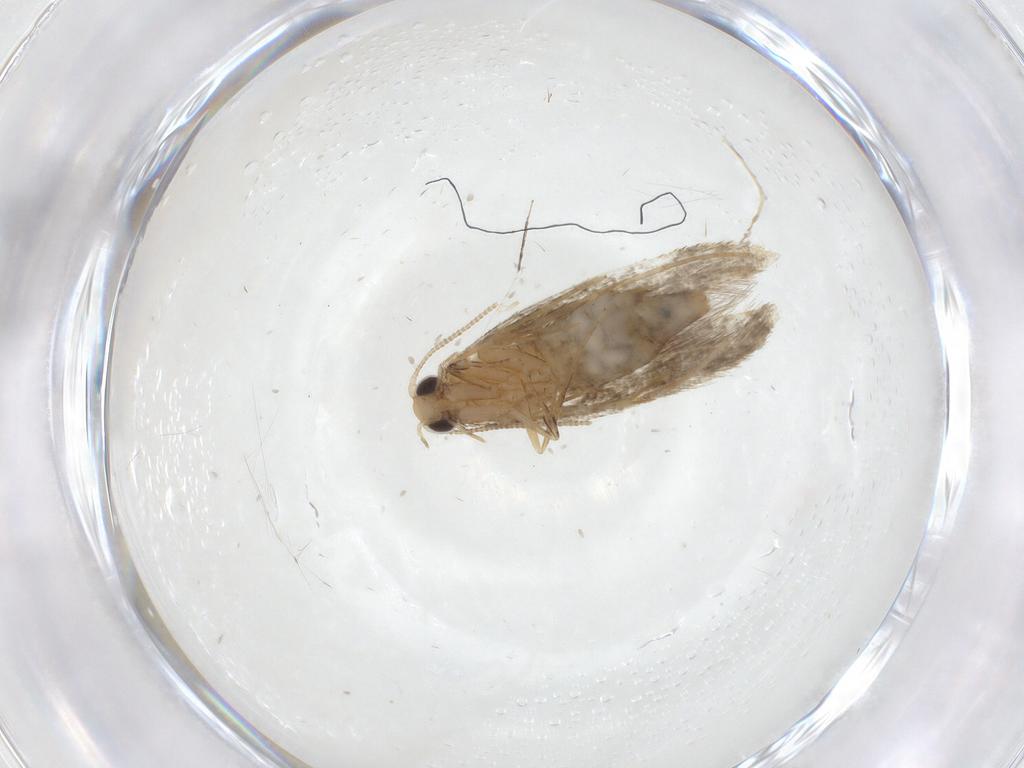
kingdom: Animalia
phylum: Arthropoda
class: Insecta
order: Lepidoptera
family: Tineidae
